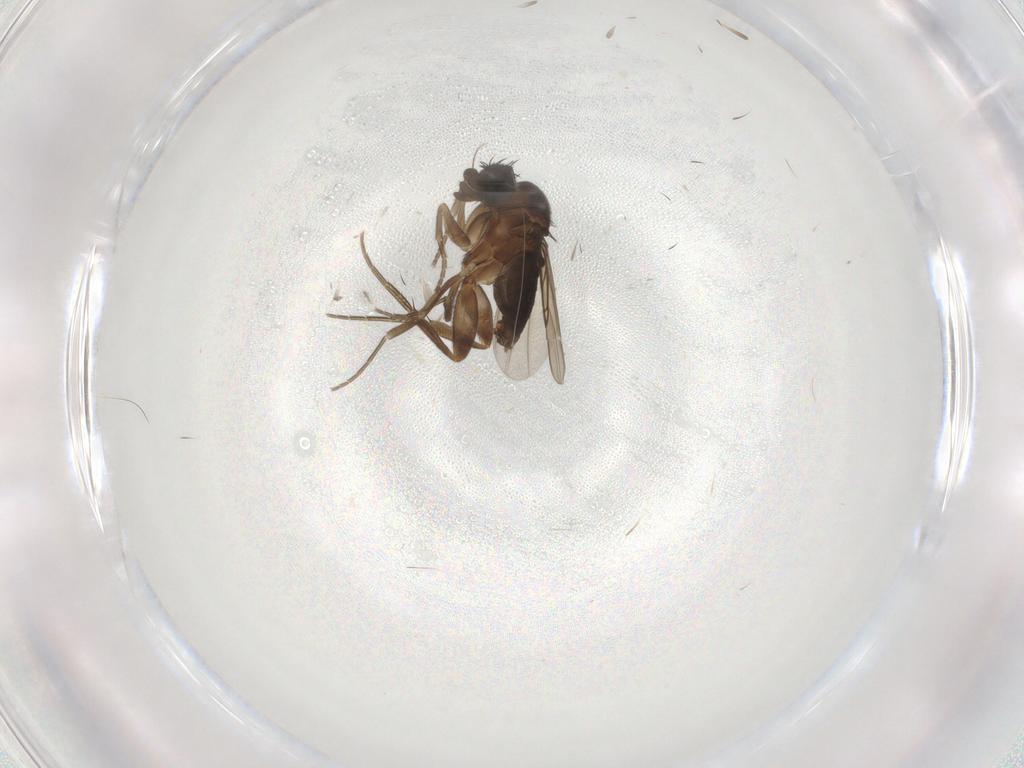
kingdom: Animalia
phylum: Arthropoda
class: Insecta
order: Diptera
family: Phoridae
